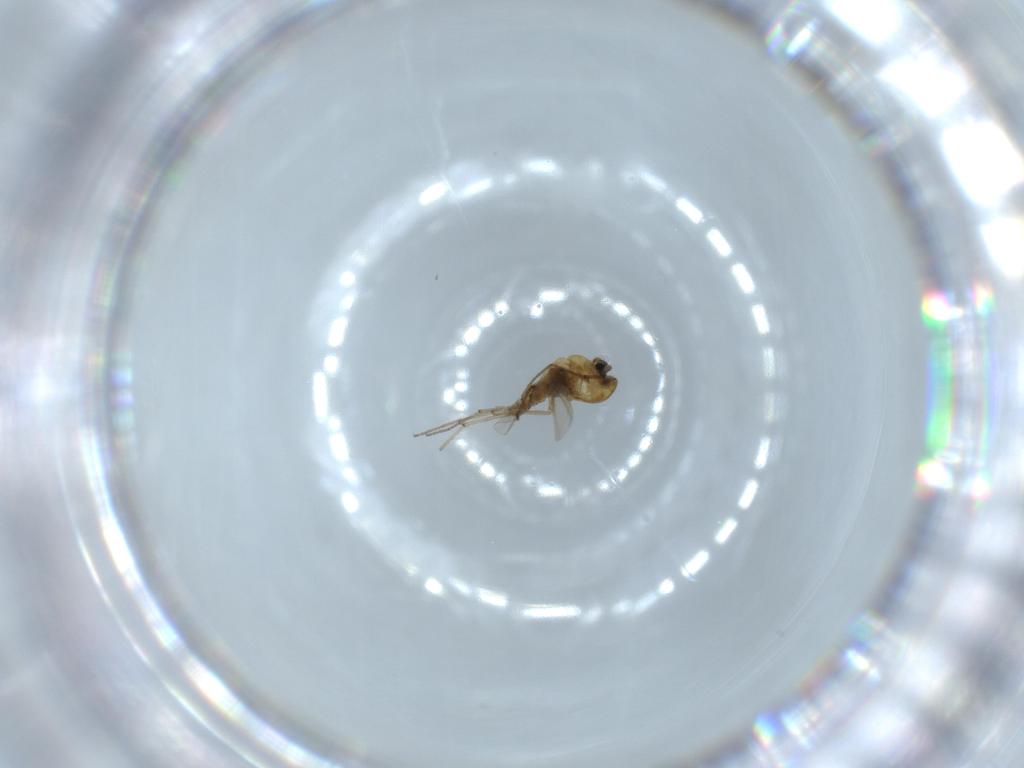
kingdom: Animalia
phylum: Arthropoda
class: Insecta
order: Diptera
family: Chironomidae
